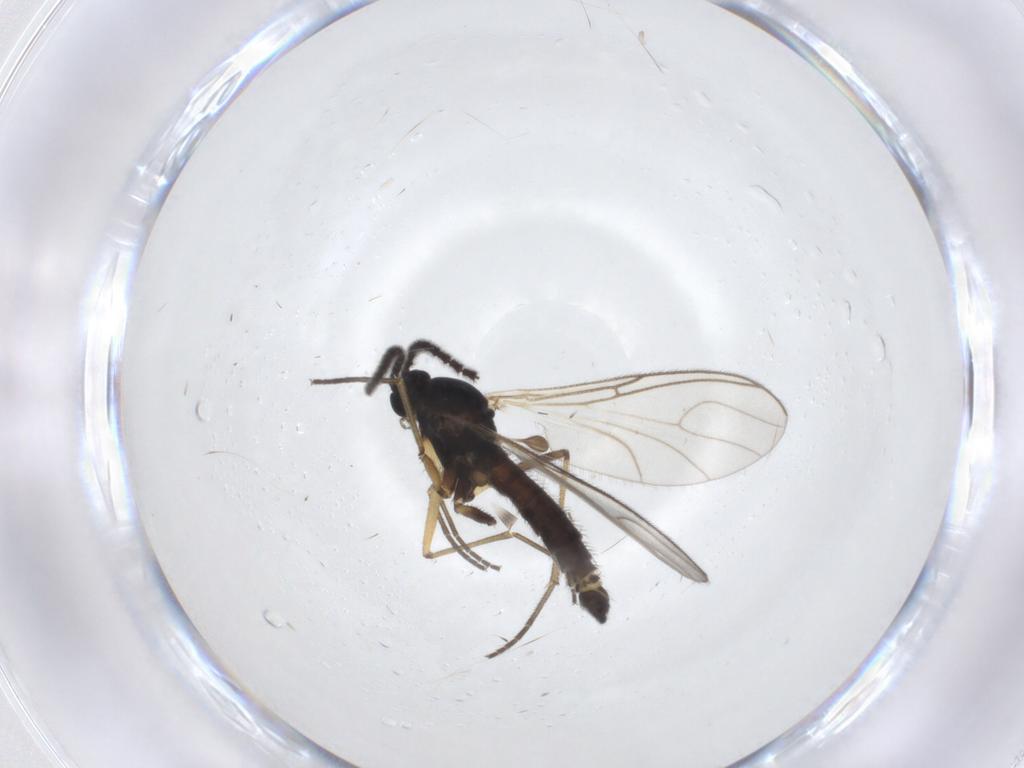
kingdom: Animalia
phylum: Arthropoda
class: Insecta
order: Diptera
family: Sciaridae
